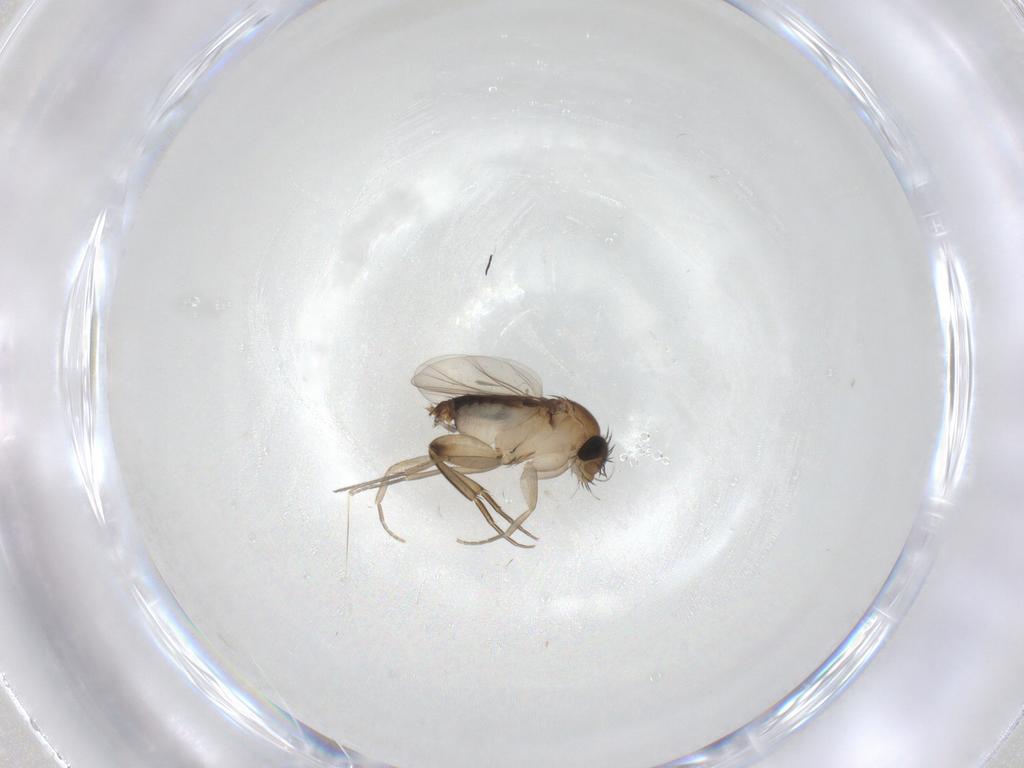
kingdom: Animalia
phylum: Arthropoda
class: Insecta
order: Diptera
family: Phoridae
